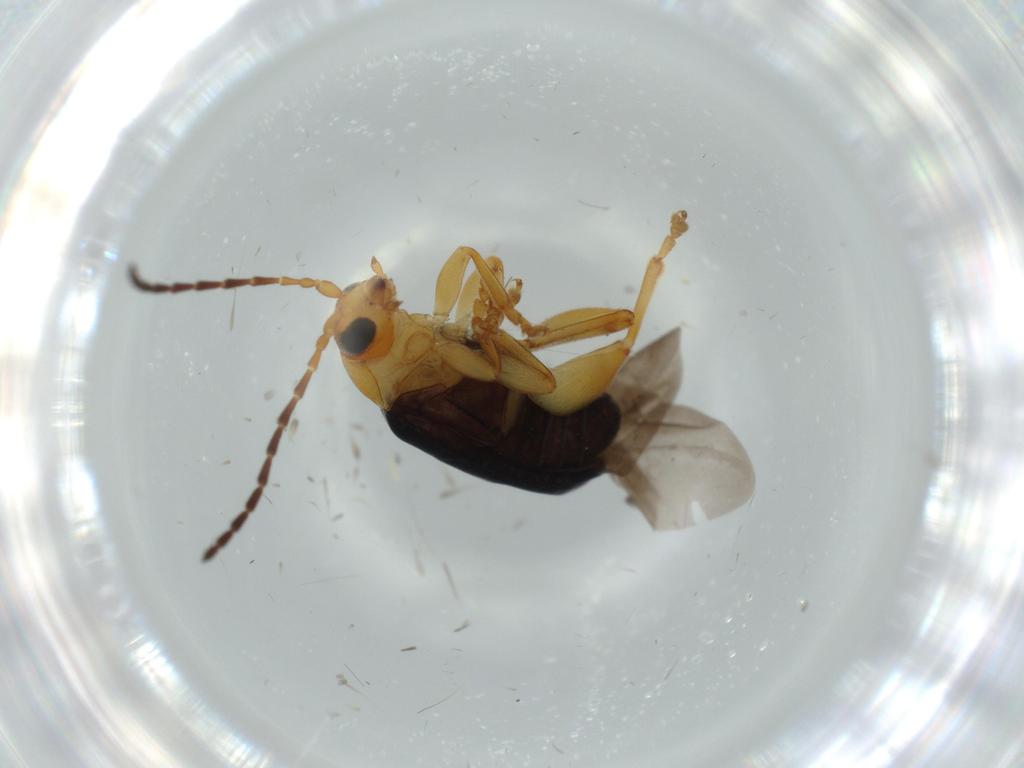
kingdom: Animalia
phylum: Arthropoda
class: Insecta
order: Coleoptera
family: Chrysomelidae
